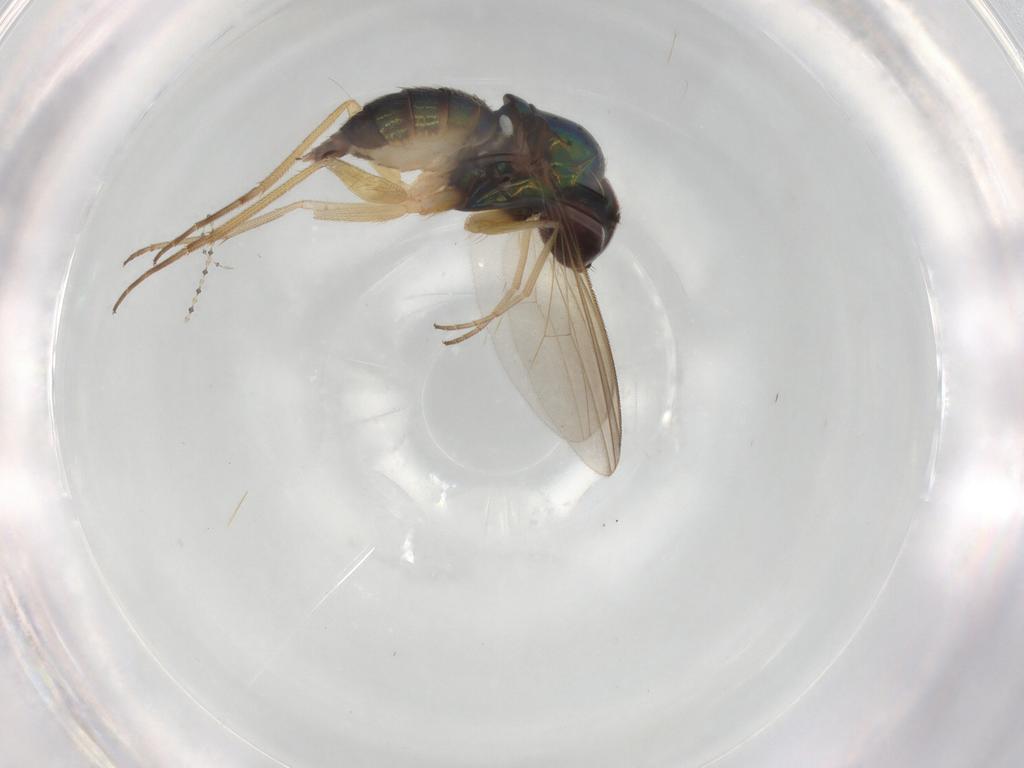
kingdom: Animalia
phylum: Arthropoda
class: Insecta
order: Diptera
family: Dolichopodidae
